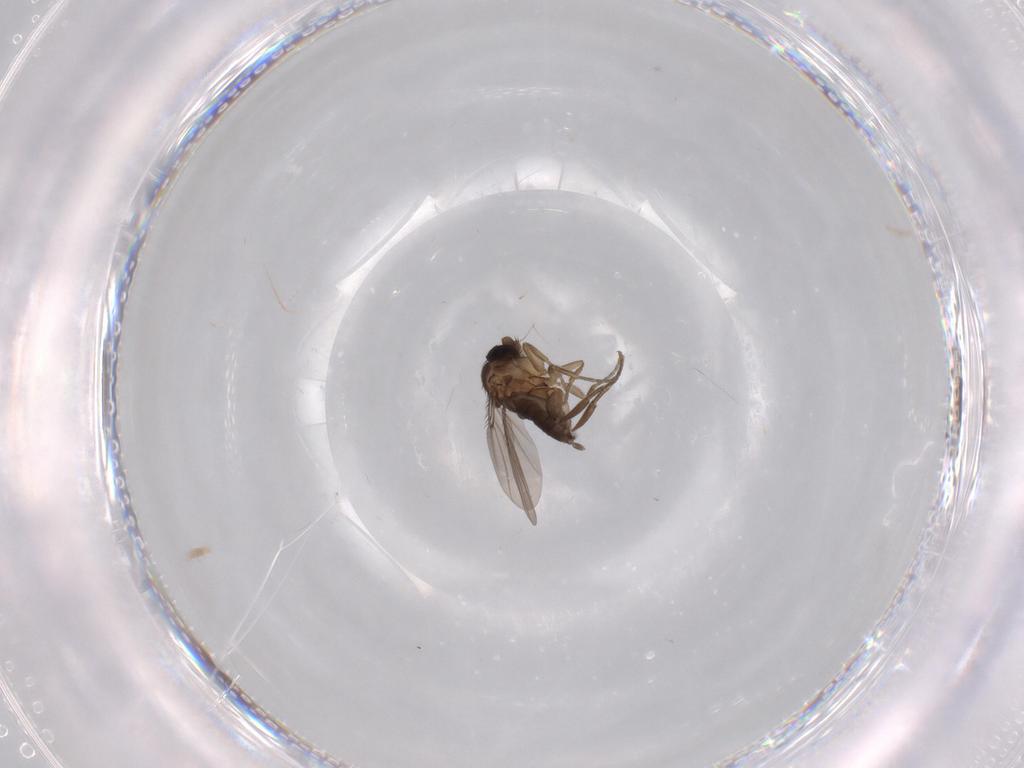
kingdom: Animalia
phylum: Arthropoda
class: Insecta
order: Diptera
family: Phoridae
